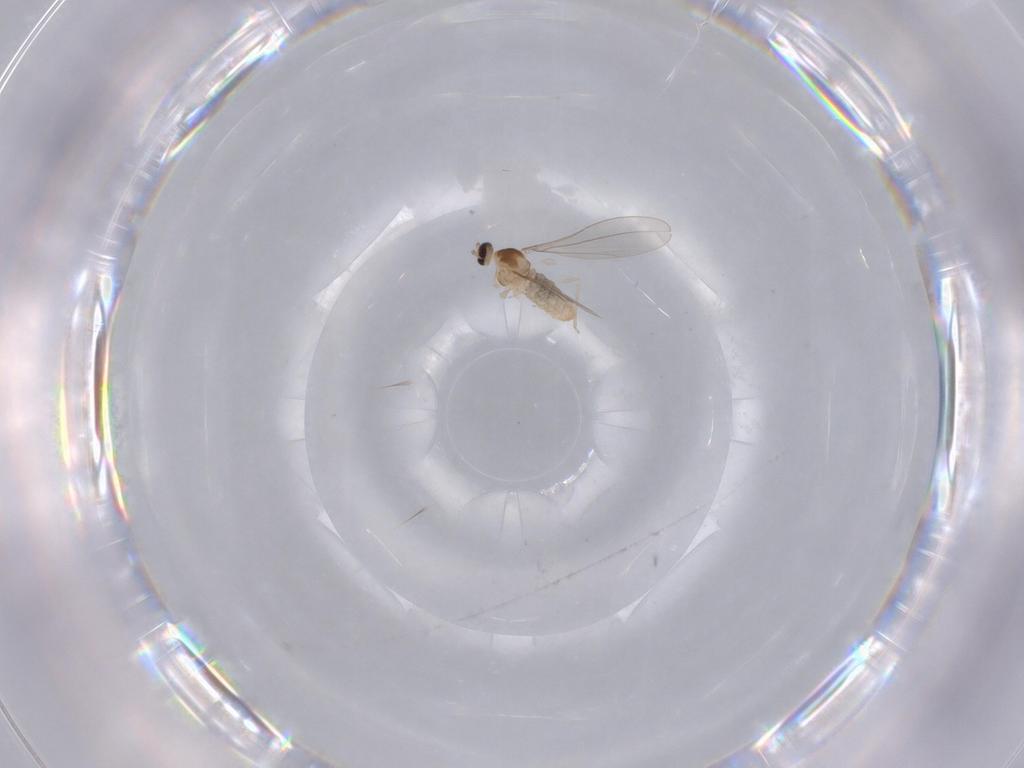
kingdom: Animalia
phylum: Arthropoda
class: Insecta
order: Diptera
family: Cecidomyiidae
